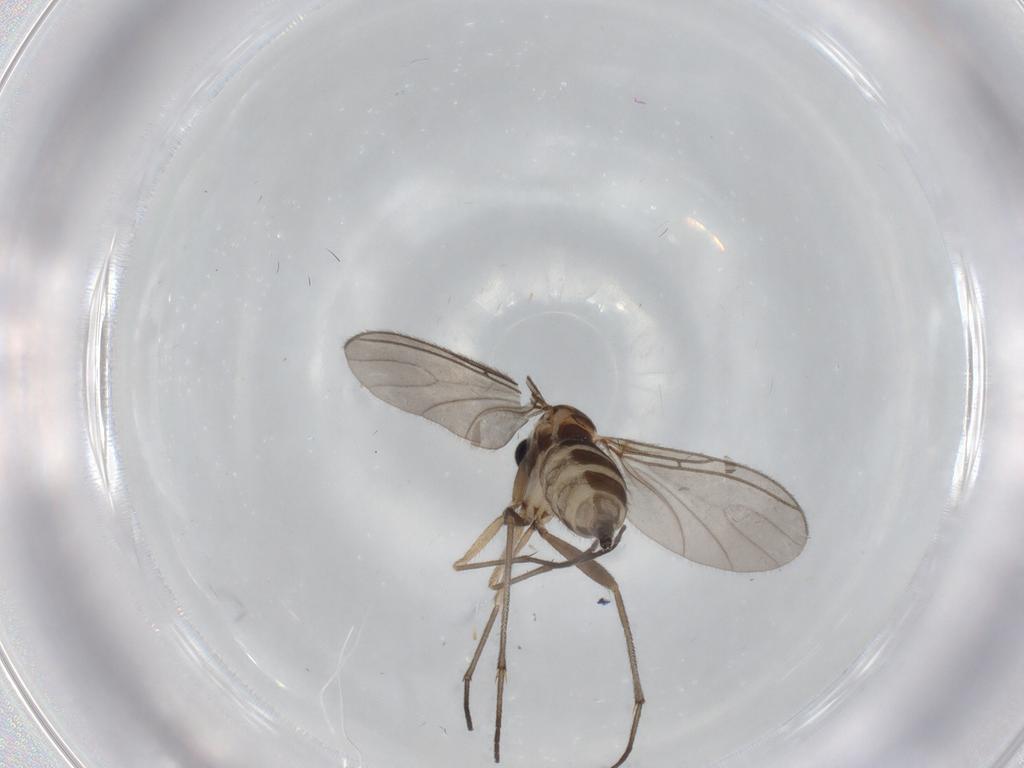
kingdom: Animalia
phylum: Arthropoda
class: Insecta
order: Diptera
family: Sciaridae
